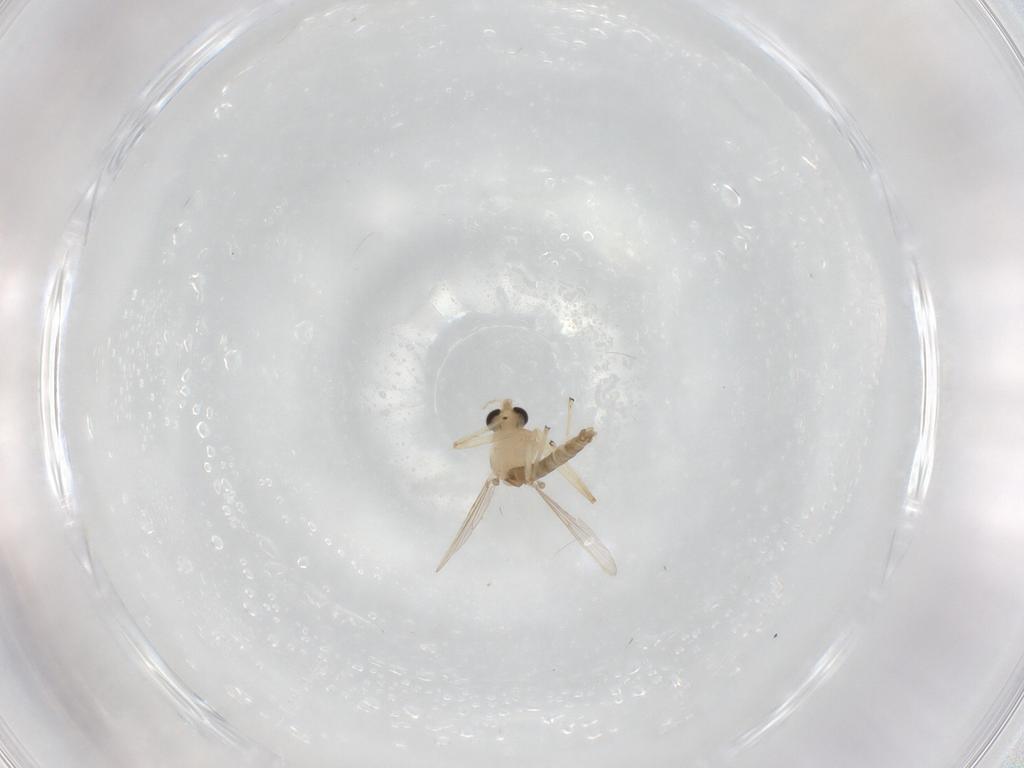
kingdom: Animalia
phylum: Arthropoda
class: Insecta
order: Diptera
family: Chironomidae
